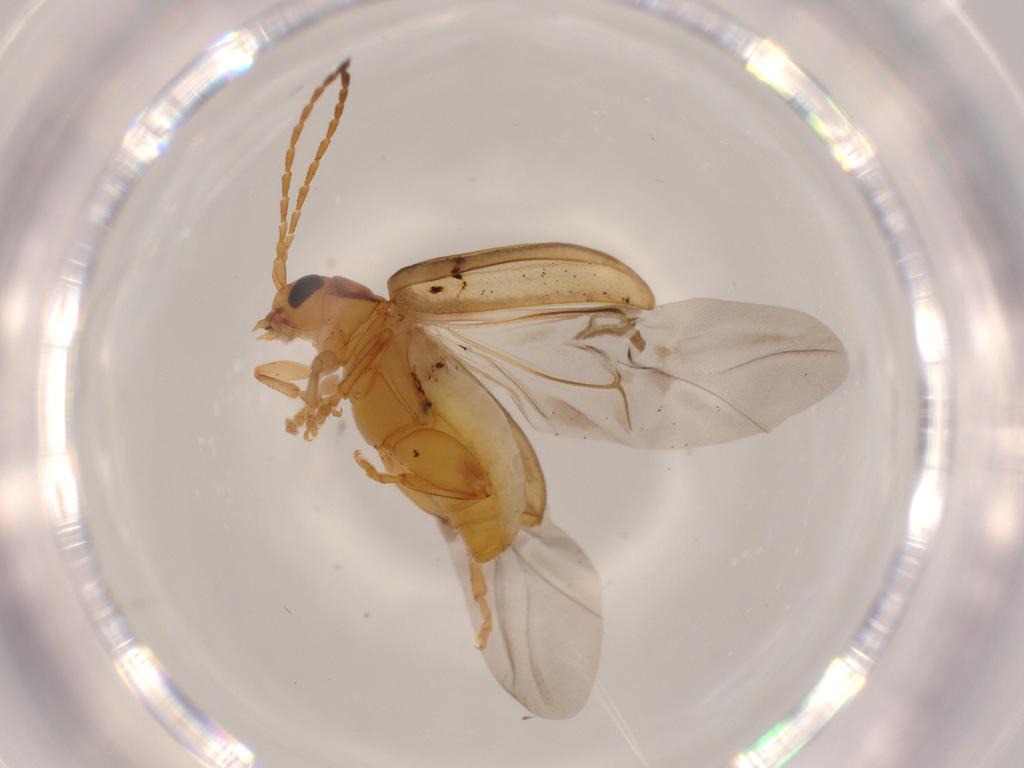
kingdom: Animalia
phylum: Arthropoda
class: Insecta
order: Coleoptera
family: Chrysomelidae
